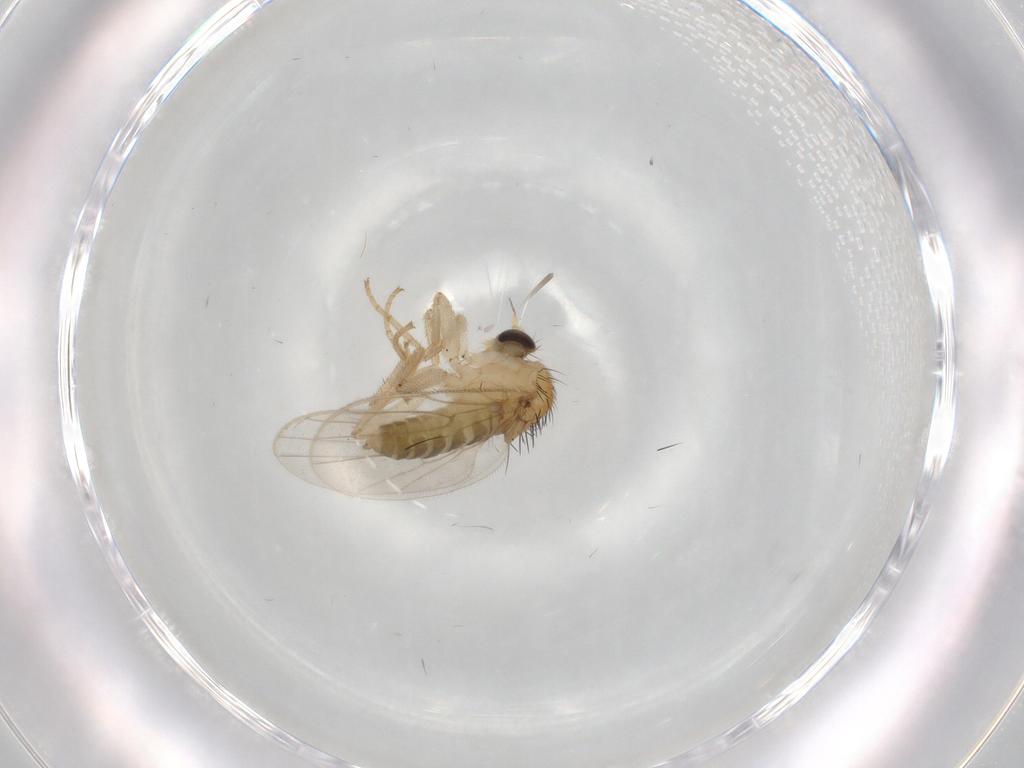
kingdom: Animalia
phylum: Arthropoda
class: Insecta
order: Diptera
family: Hybotidae
